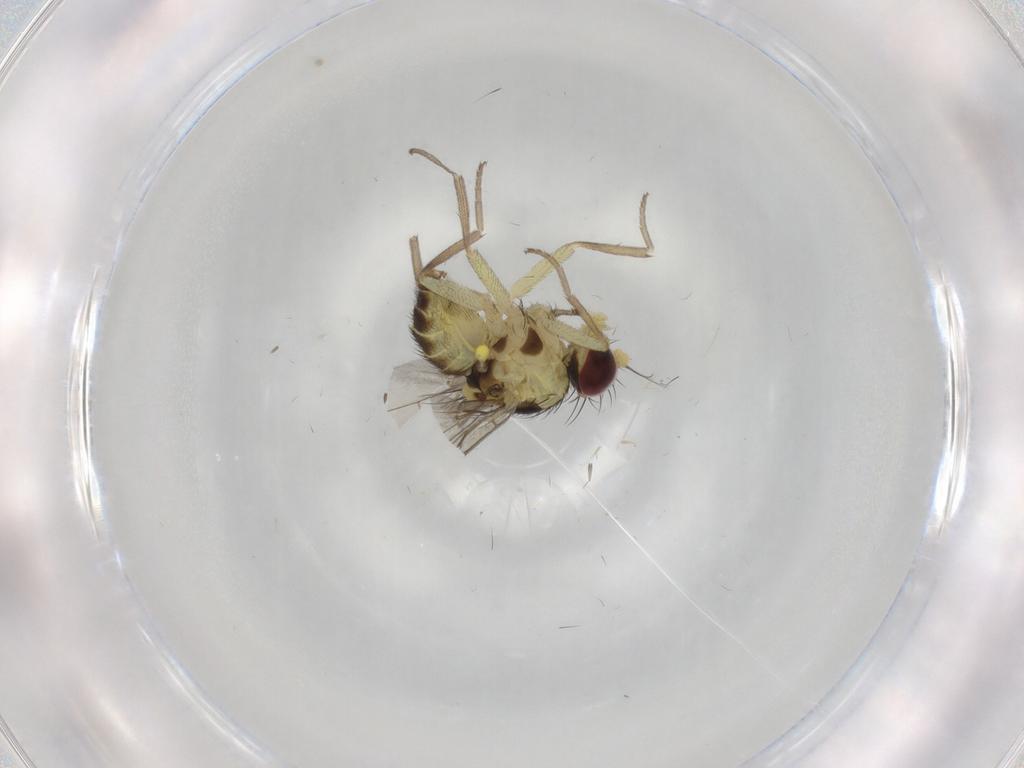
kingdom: Animalia
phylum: Arthropoda
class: Insecta
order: Diptera
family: Agromyzidae
